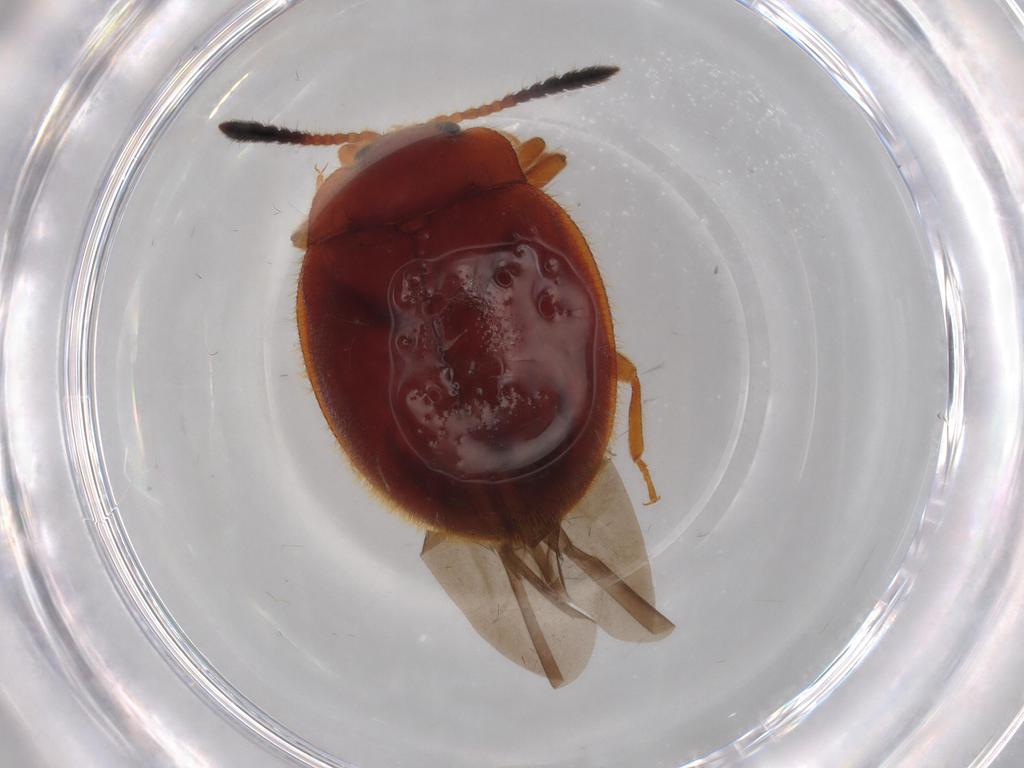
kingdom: Animalia
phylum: Arthropoda
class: Insecta
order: Coleoptera
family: Endomychidae
